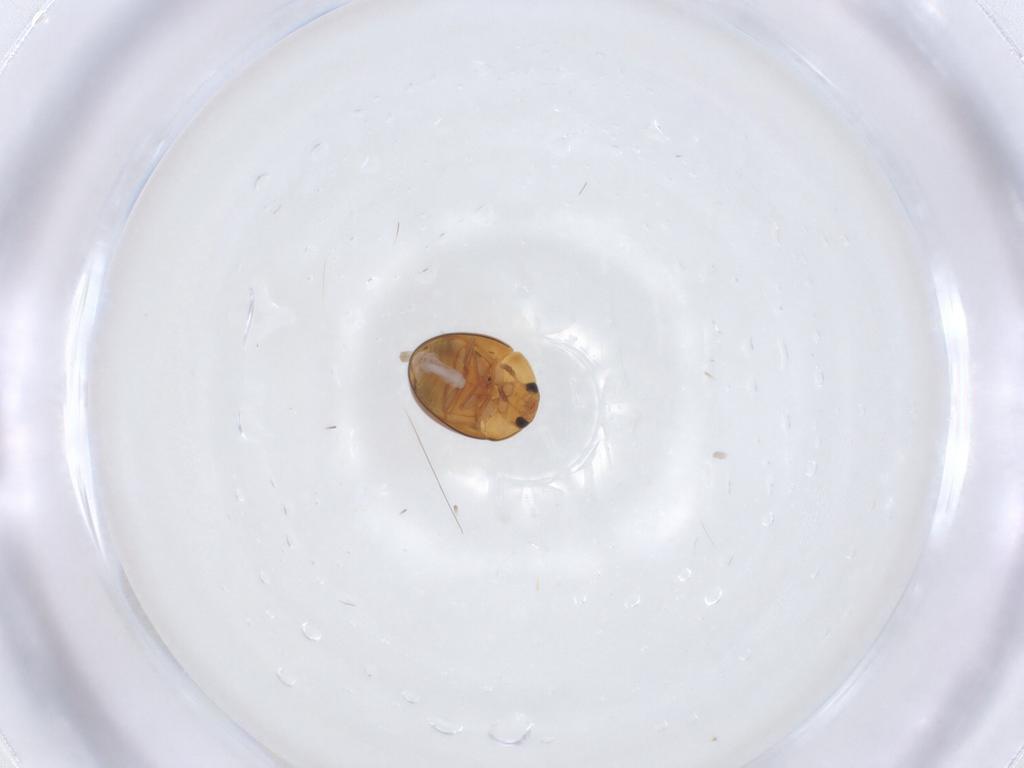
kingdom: Animalia
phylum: Arthropoda
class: Insecta
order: Coleoptera
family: Phalacridae
